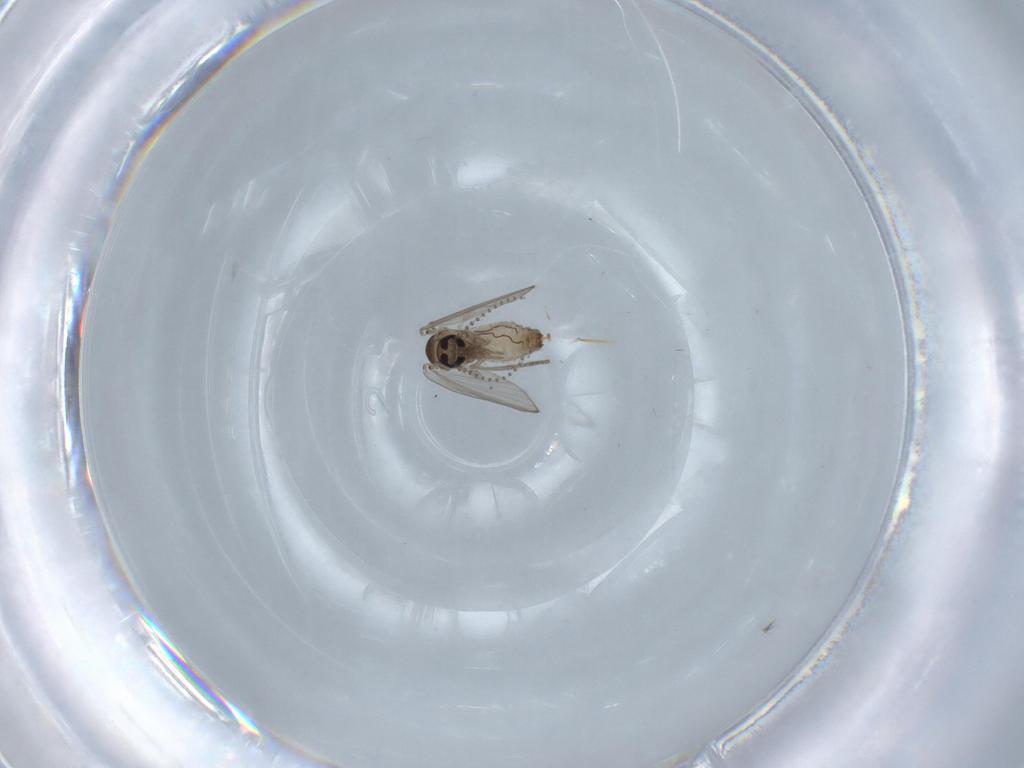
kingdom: Animalia
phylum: Arthropoda
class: Insecta
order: Diptera
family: Psychodidae
